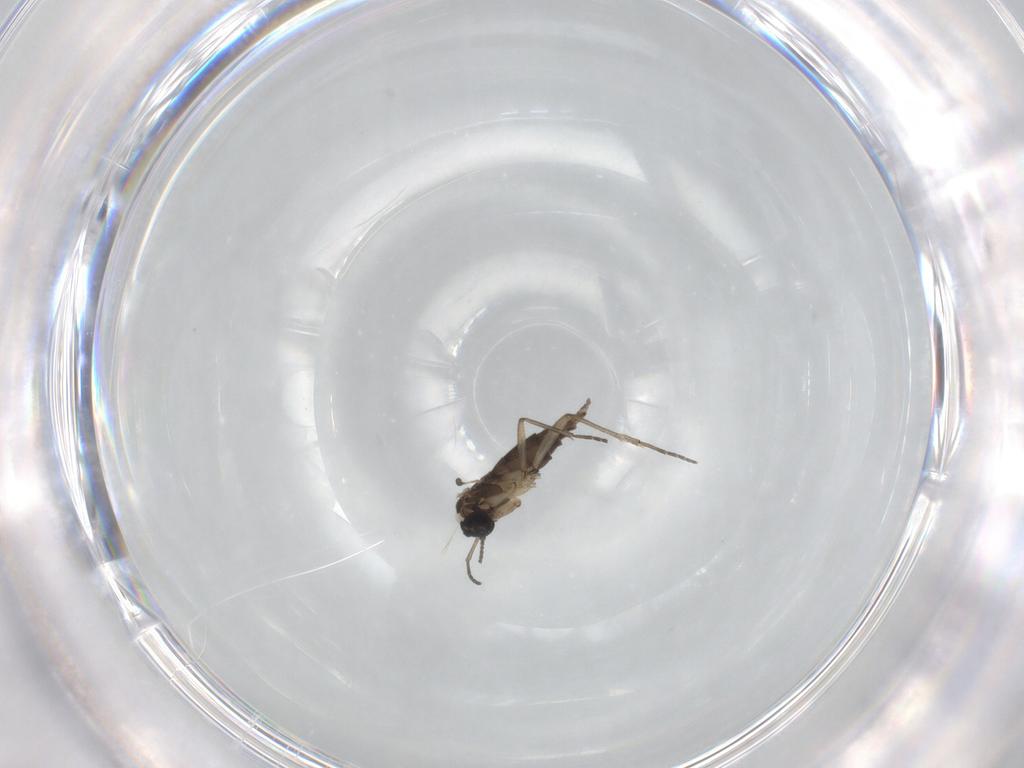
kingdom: Animalia
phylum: Arthropoda
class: Insecta
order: Diptera
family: Sciaridae
